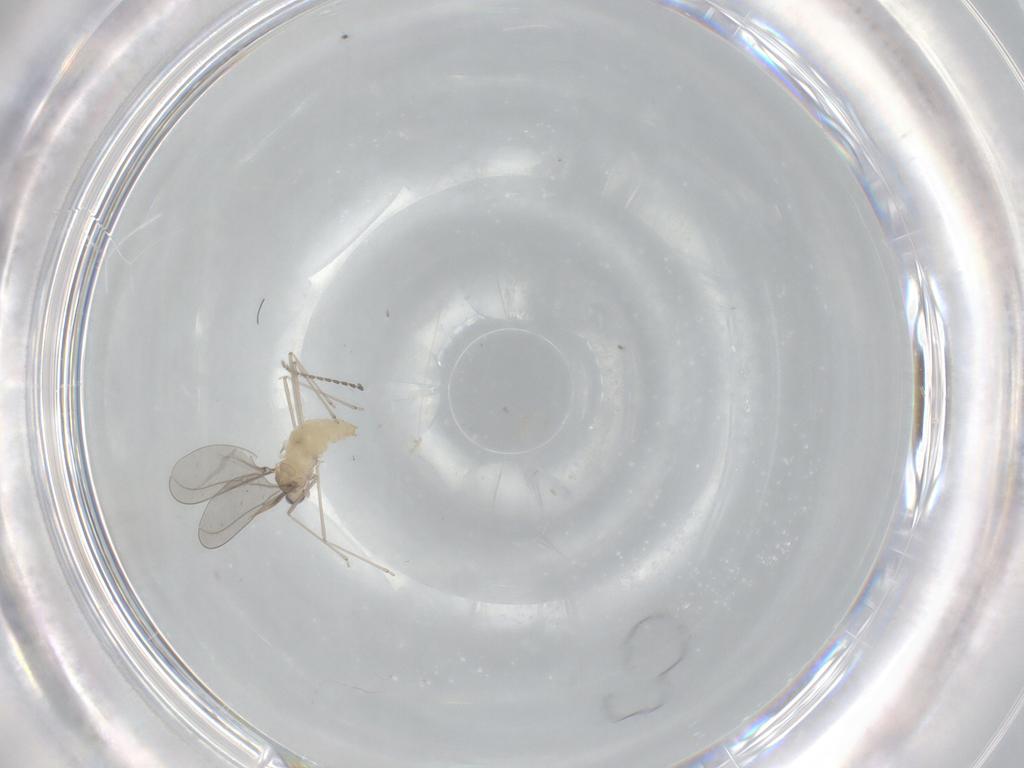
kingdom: Animalia
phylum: Arthropoda
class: Insecta
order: Diptera
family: Cecidomyiidae
